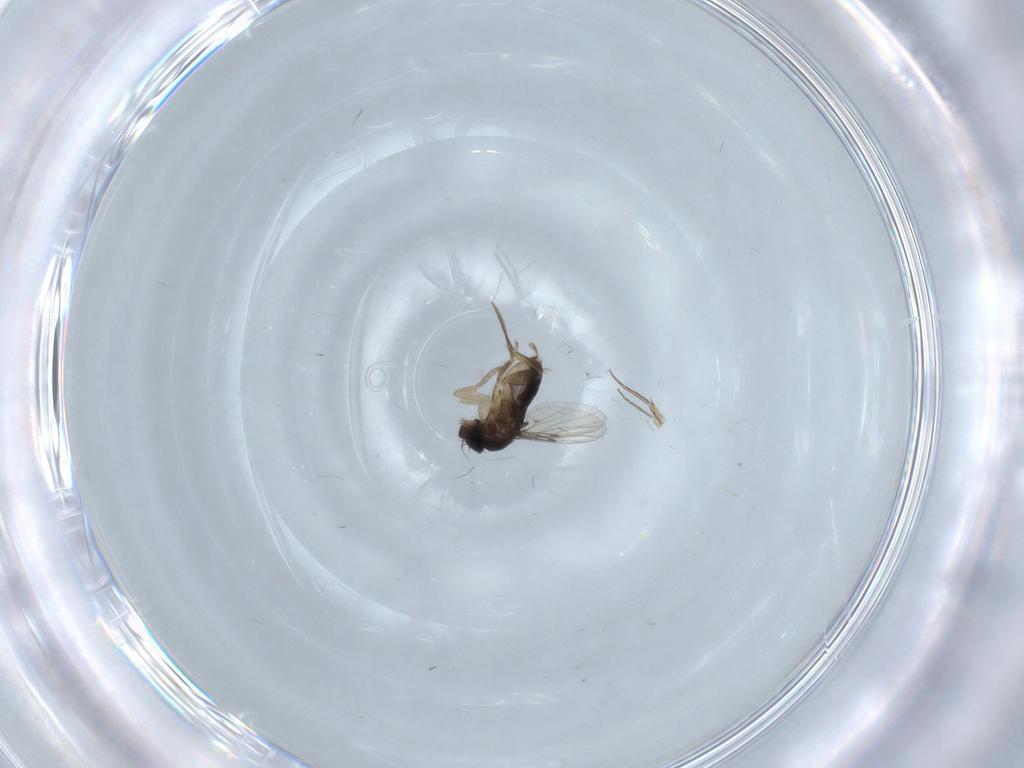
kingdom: Animalia
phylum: Arthropoda
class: Insecta
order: Diptera
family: Phoridae
